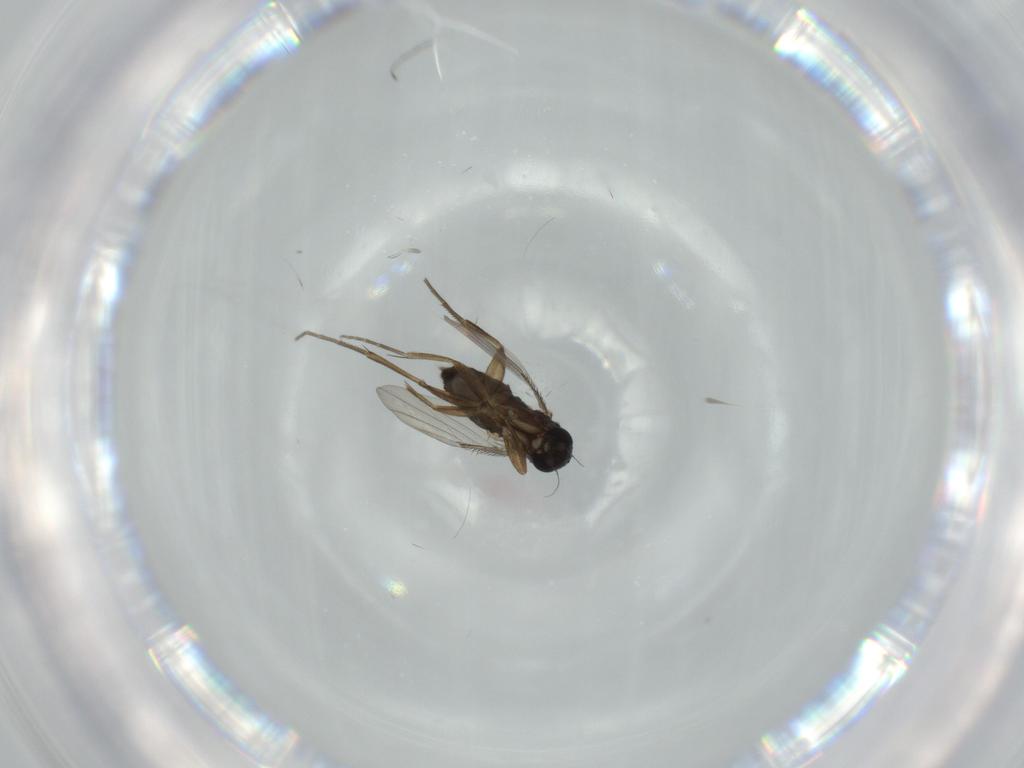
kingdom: Animalia
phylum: Arthropoda
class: Insecta
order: Diptera
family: Phoridae
